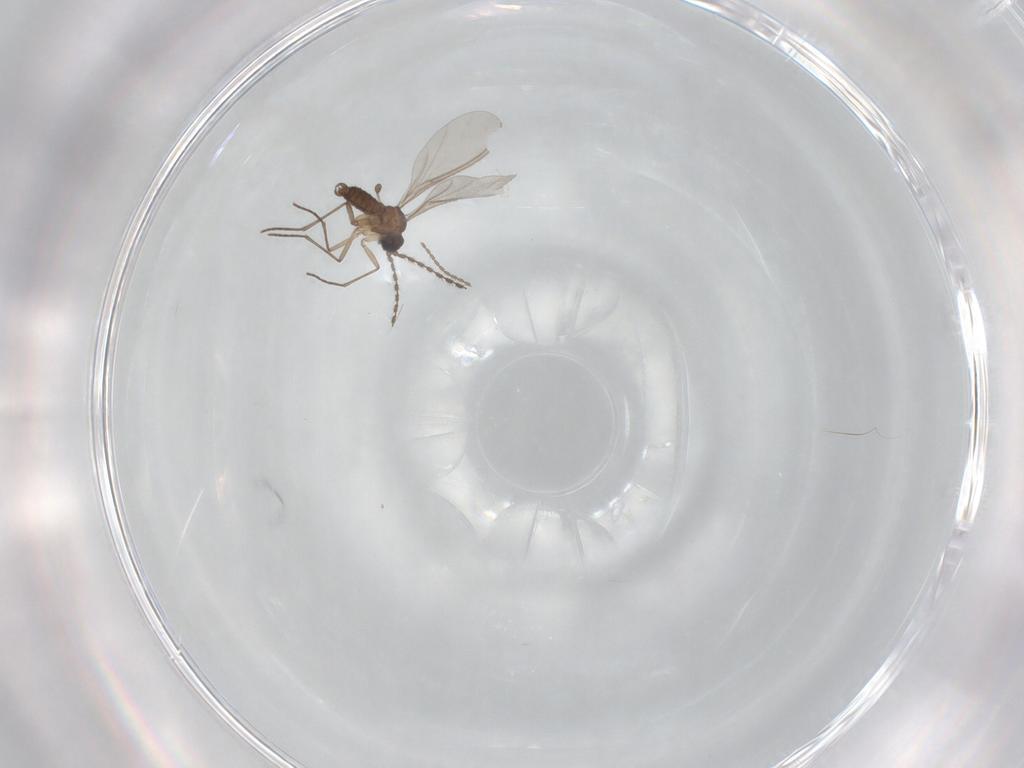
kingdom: Animalia
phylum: Arthropoda
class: Insecta
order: Diptera
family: Sciaridae
